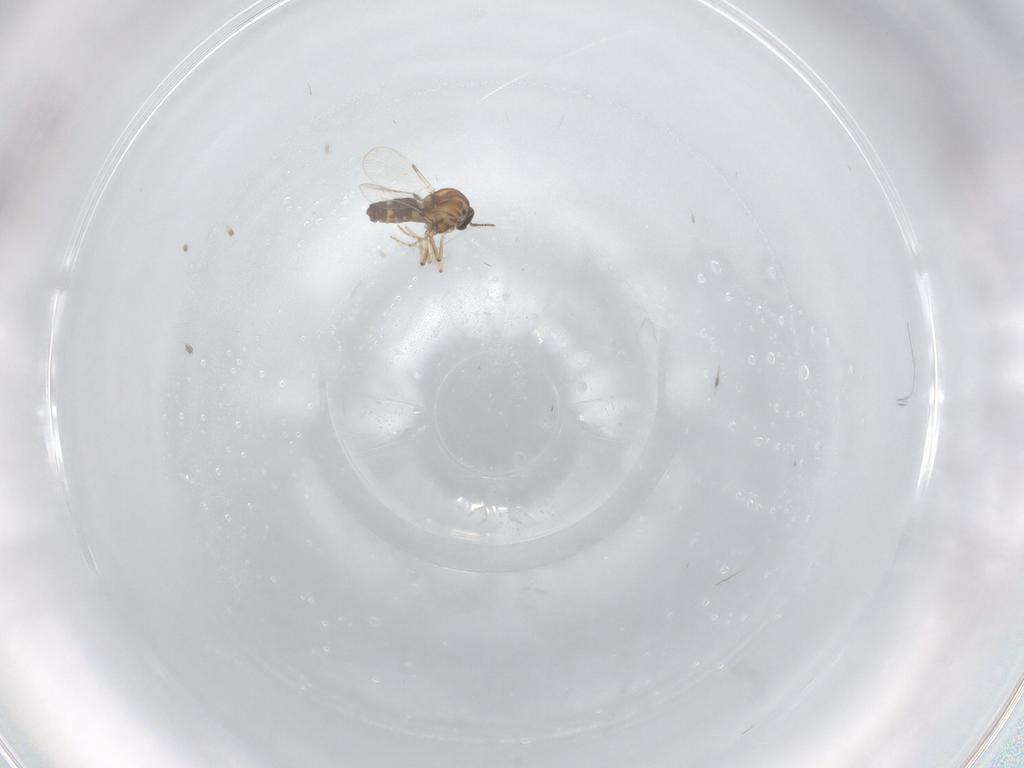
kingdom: Animalia
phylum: Arthropoda
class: Insecta
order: Diptera
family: Ceratopogonidae
